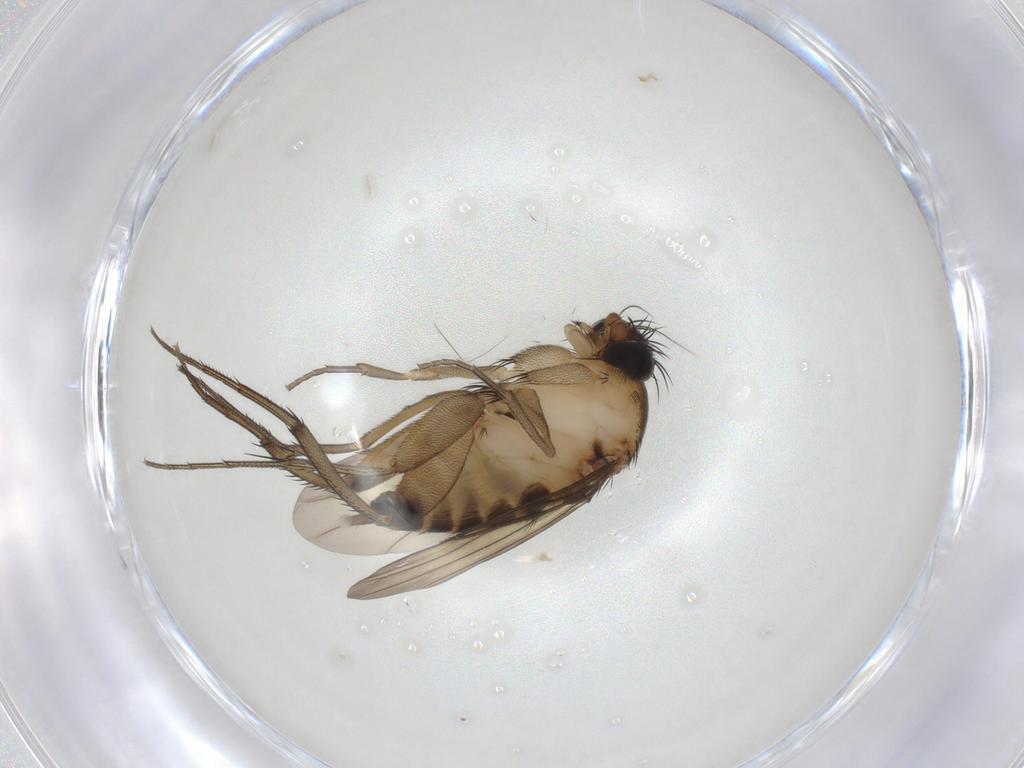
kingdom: Animalia
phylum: Arthropoda
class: Insecta
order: Diptera
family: Phoridae
